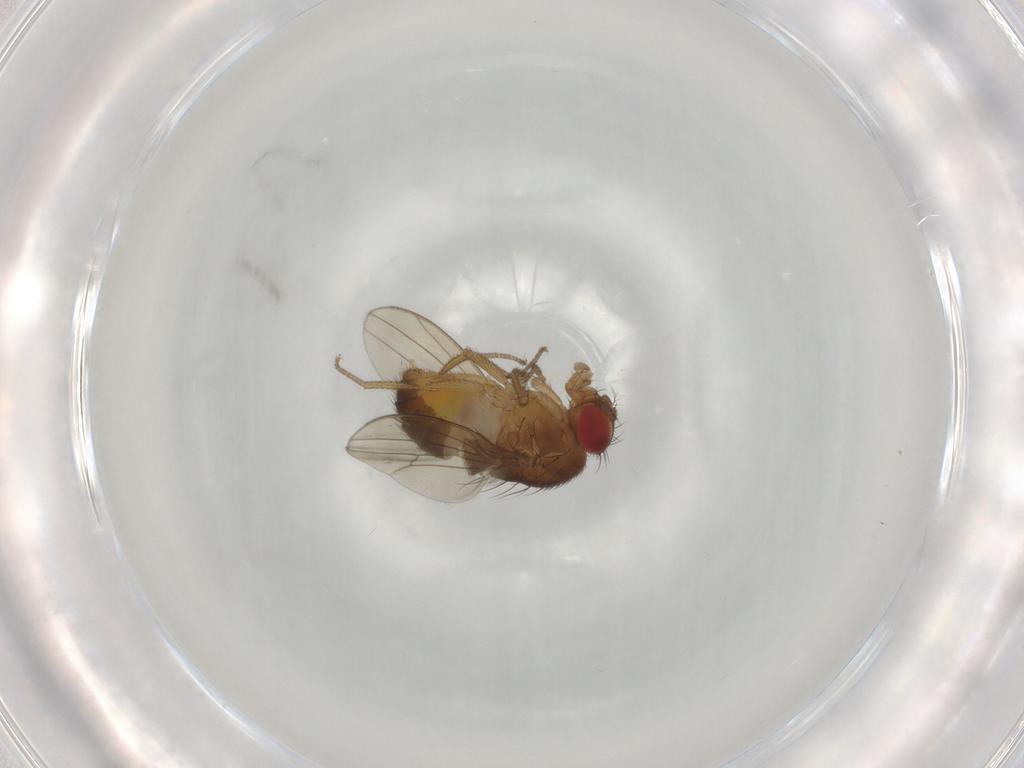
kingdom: Animalia
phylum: Arthropoda
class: Insecta
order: Diptera
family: Drosophilidae
